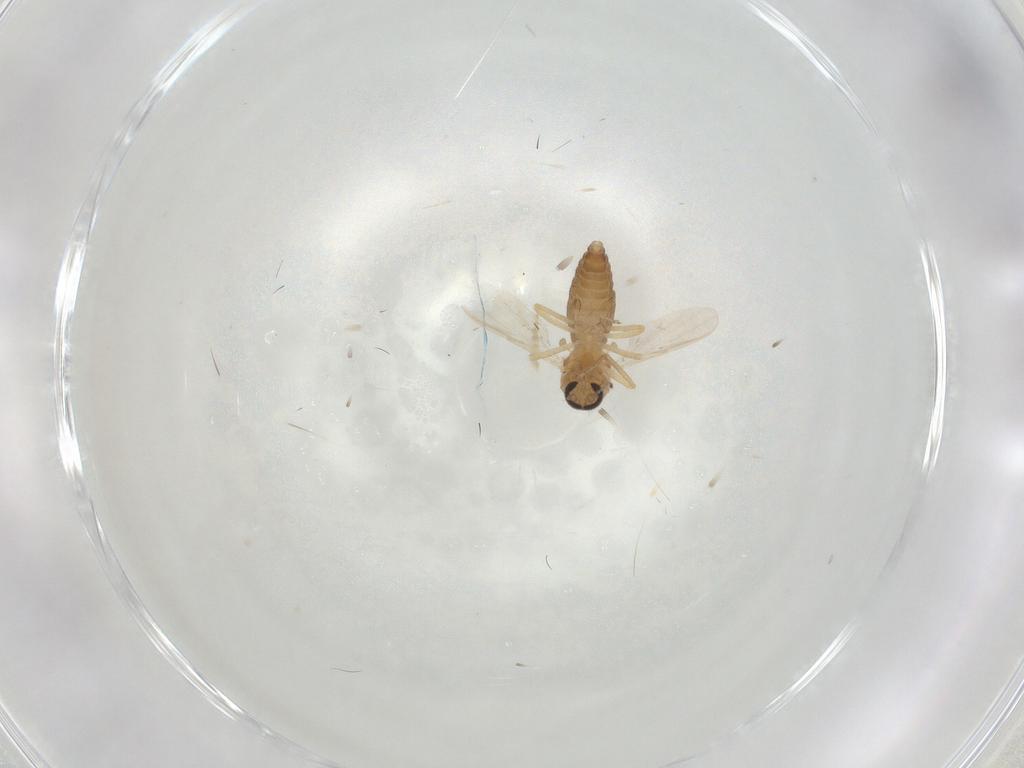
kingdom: Animalia
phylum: Arthropoda
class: Insecta
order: Diptera
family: Ceratopogonidae
